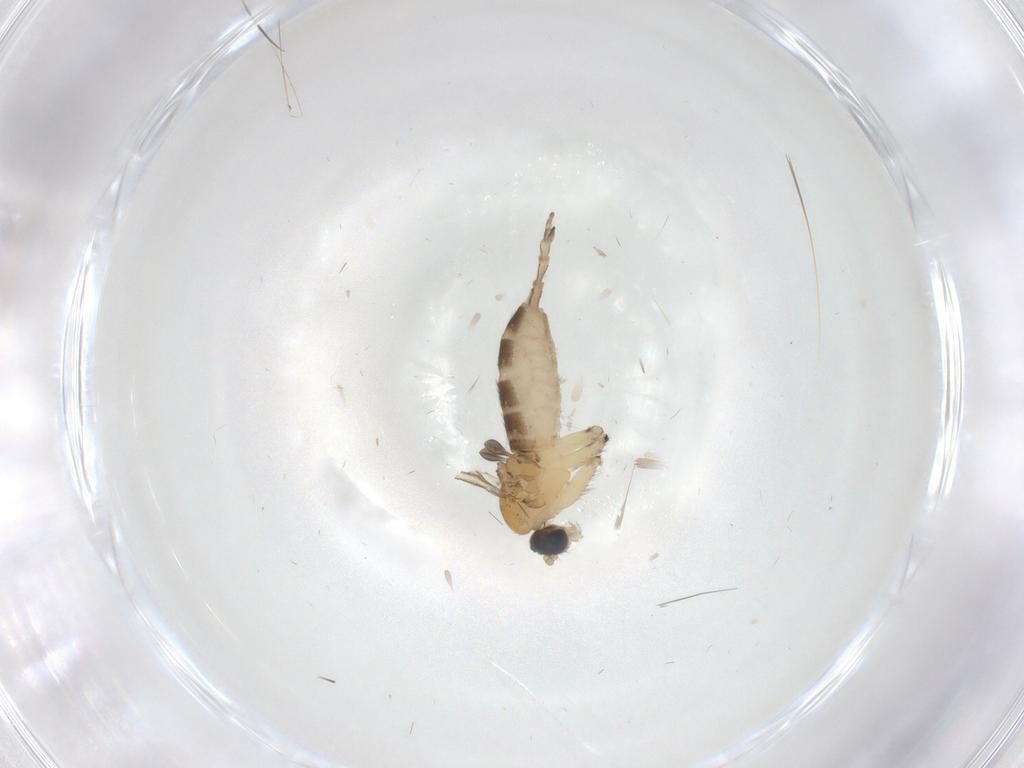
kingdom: Animalia
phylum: Arthropoda
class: Insecta
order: Diptera
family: Sciaridae
